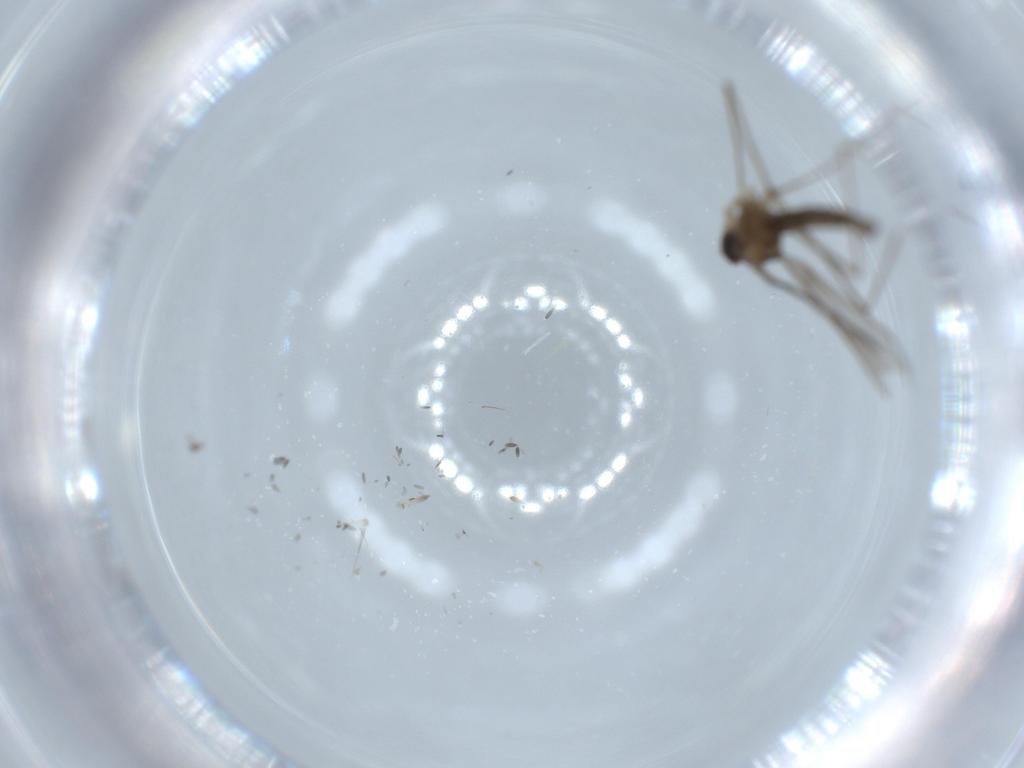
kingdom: Animalia
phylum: Arthropoda
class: Insecta
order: Diptera
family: Cecidomyiidae
